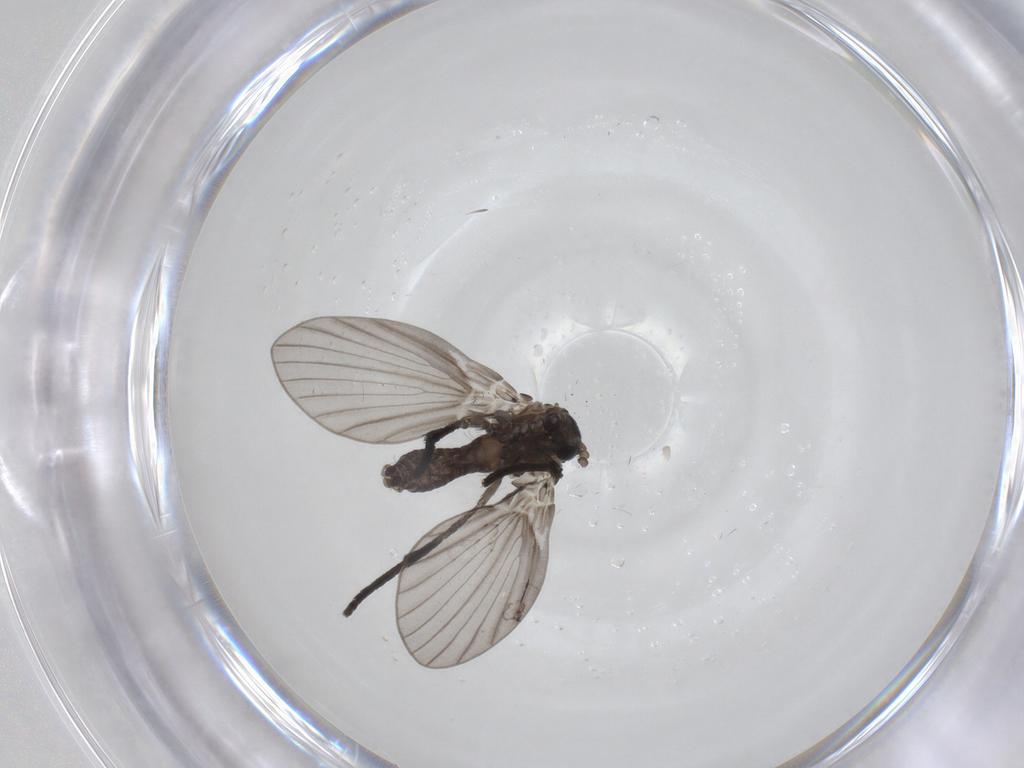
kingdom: Animalia
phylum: Arthropoda
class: Insecta
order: Diptera
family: Psychodidae
